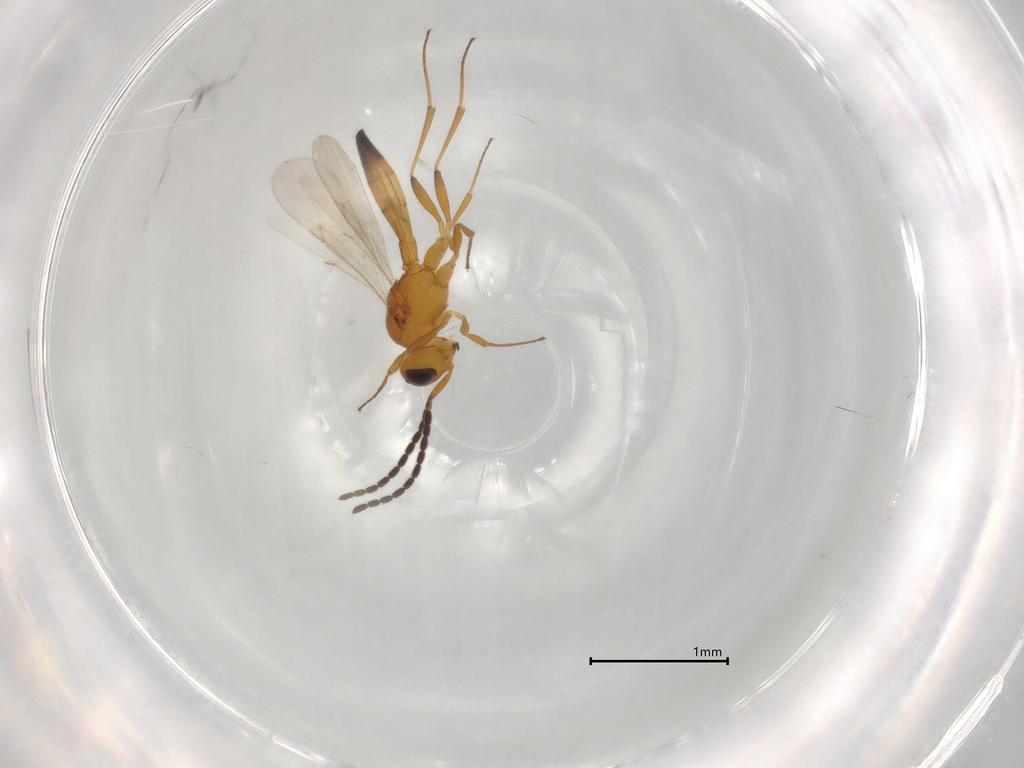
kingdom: Animalia
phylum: Arthropoda
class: Insecta
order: Hymenoptera
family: Scelionidae
